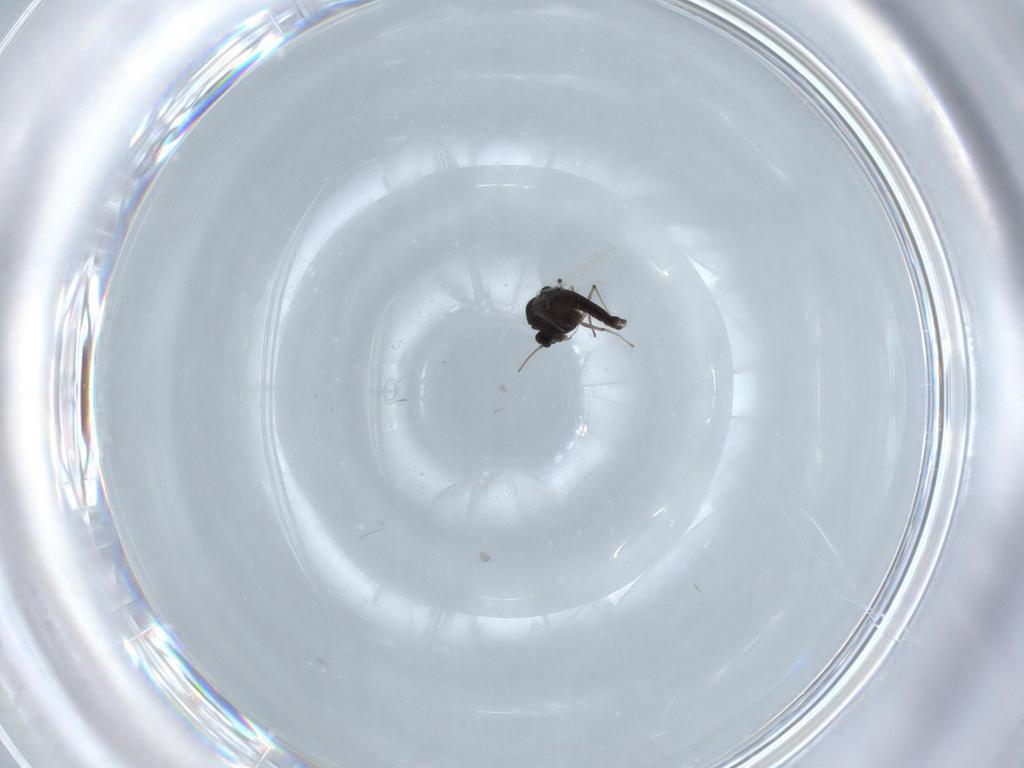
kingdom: Animalia
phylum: Arthropoda
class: Insecta
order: Diptera
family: Chironomidae
